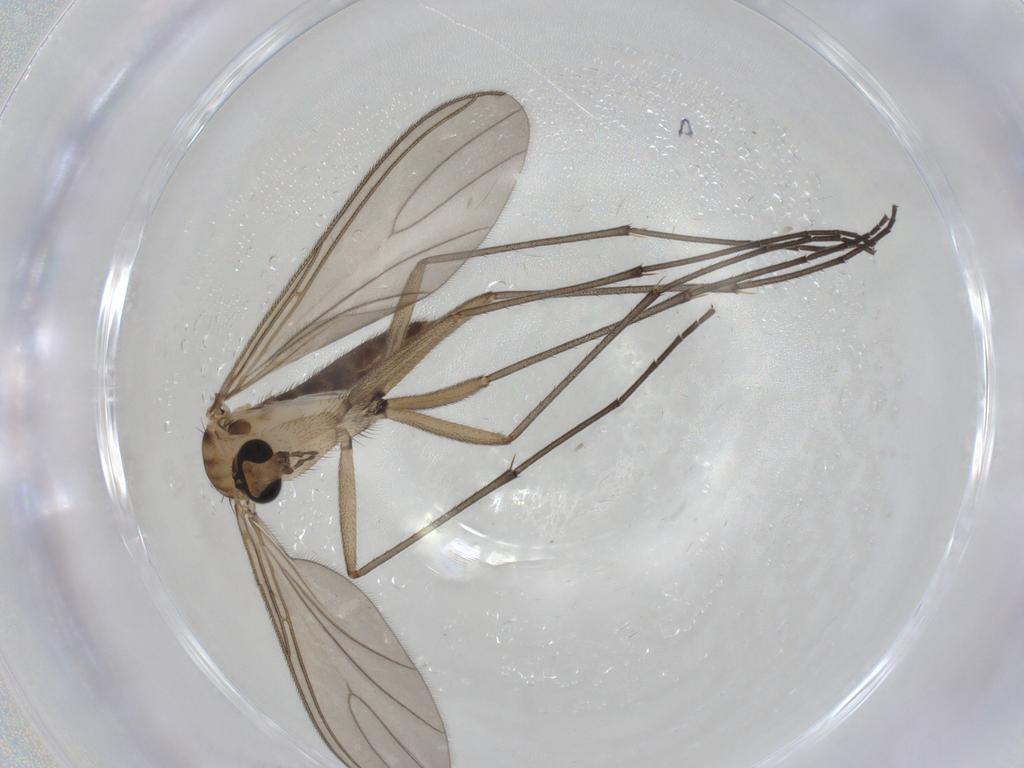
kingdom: Animalia
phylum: Arthropoda
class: Insecta
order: Diptera
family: Sciaridae
